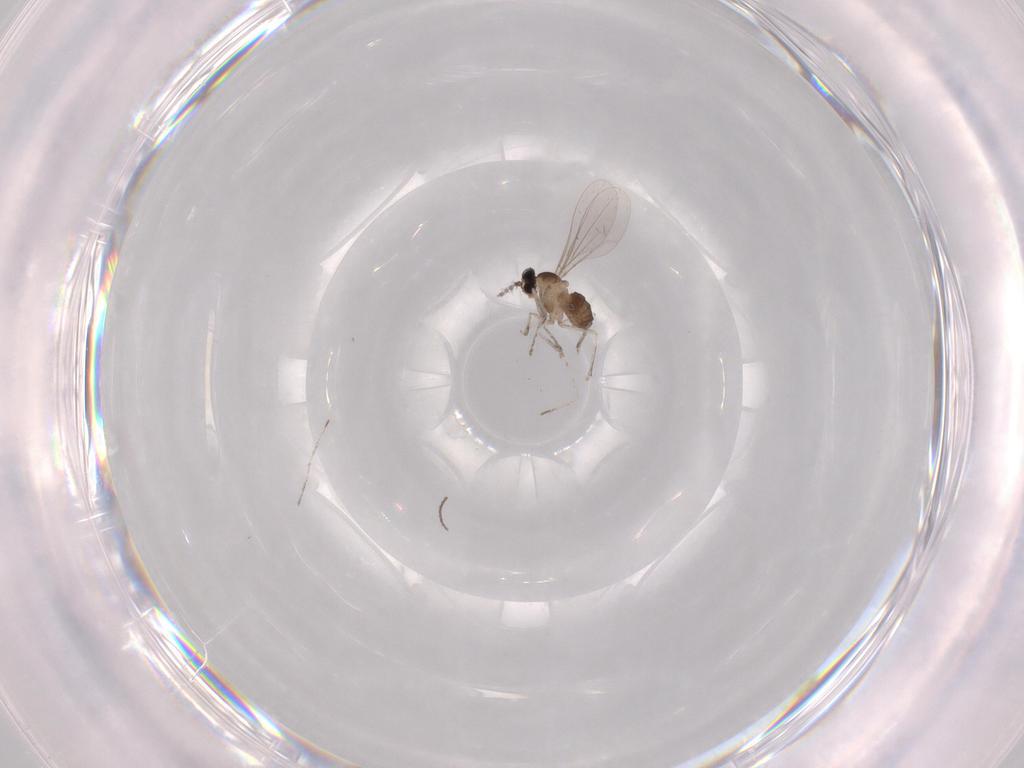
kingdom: Animalia
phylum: Arthropoda
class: Insecta
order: Diptera
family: Cecidomyiidae
